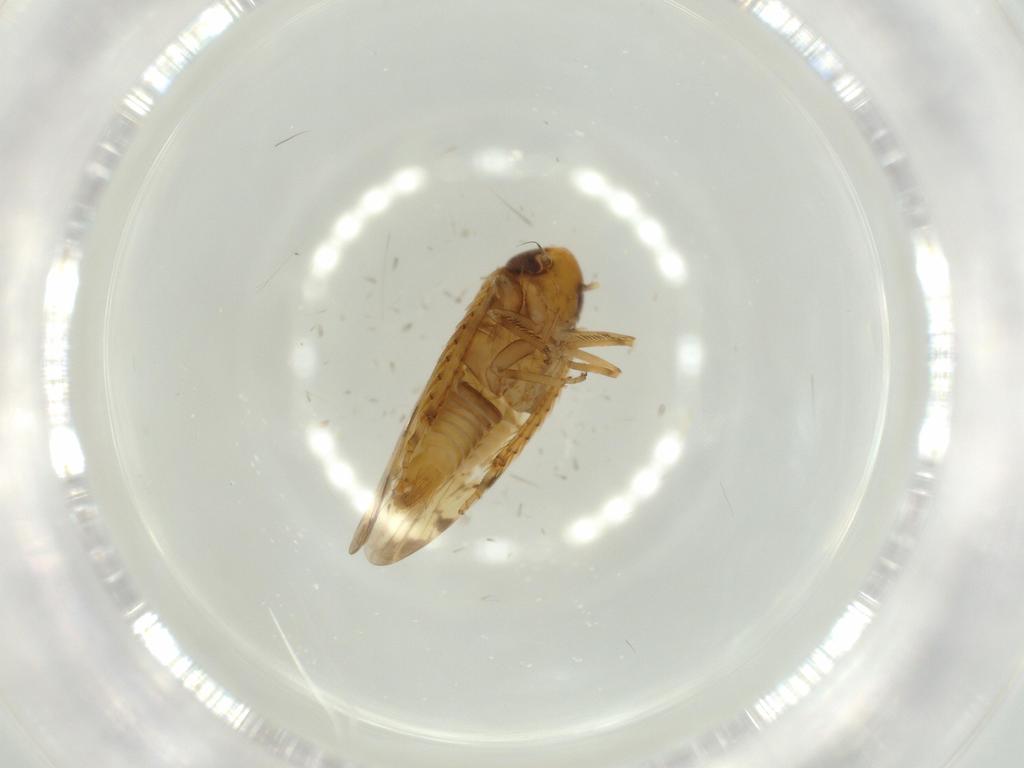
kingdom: Animalia
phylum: Arthropoda
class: Insecta
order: Hemiptera
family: Cicadellidae
